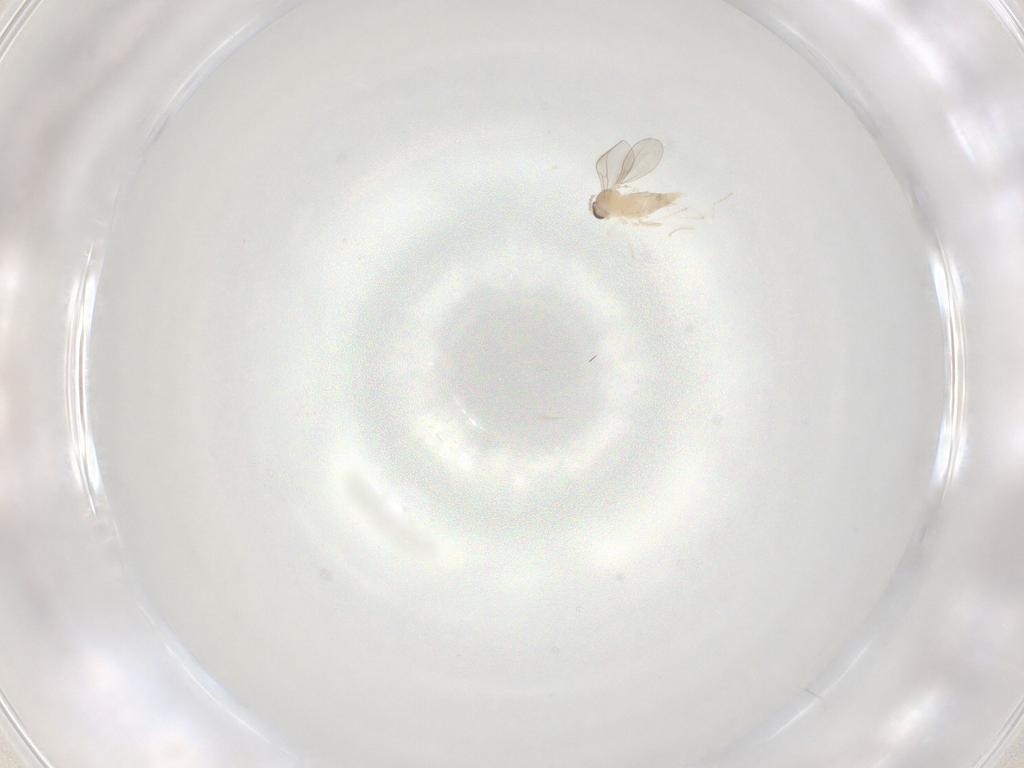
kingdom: Animalia
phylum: Arthropoda
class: Insecta
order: Diptera
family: Cecidomyiidae
